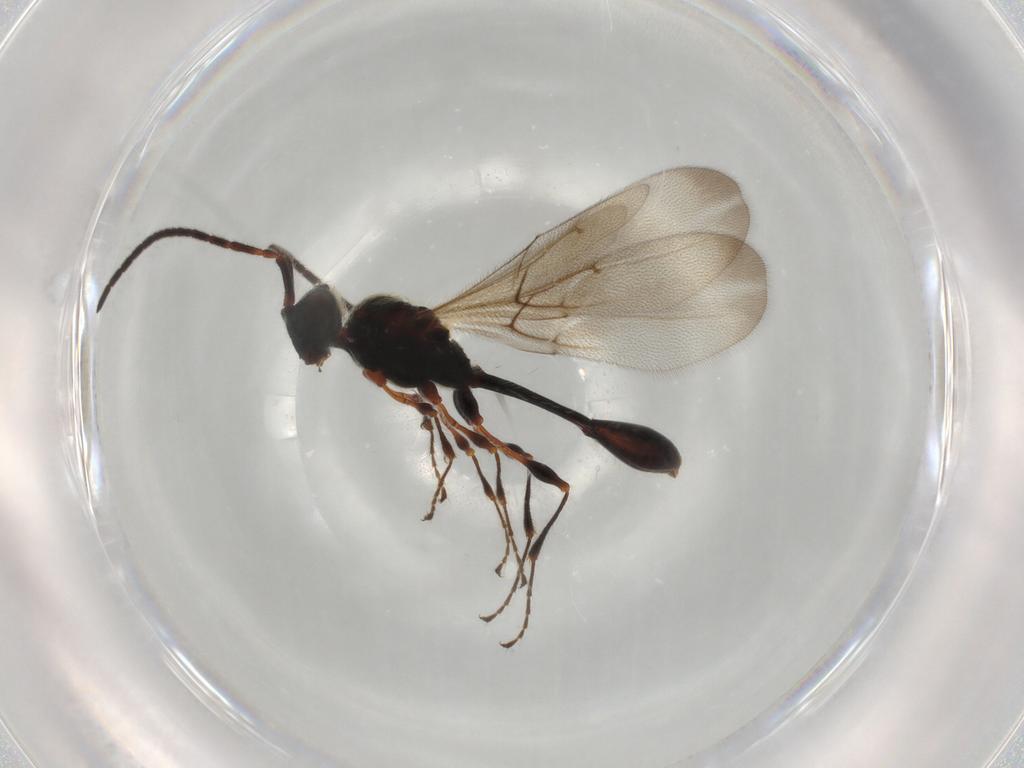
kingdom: Animalia
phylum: Arthropoda
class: Insecta
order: Hymenoptera
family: Diapriidae
